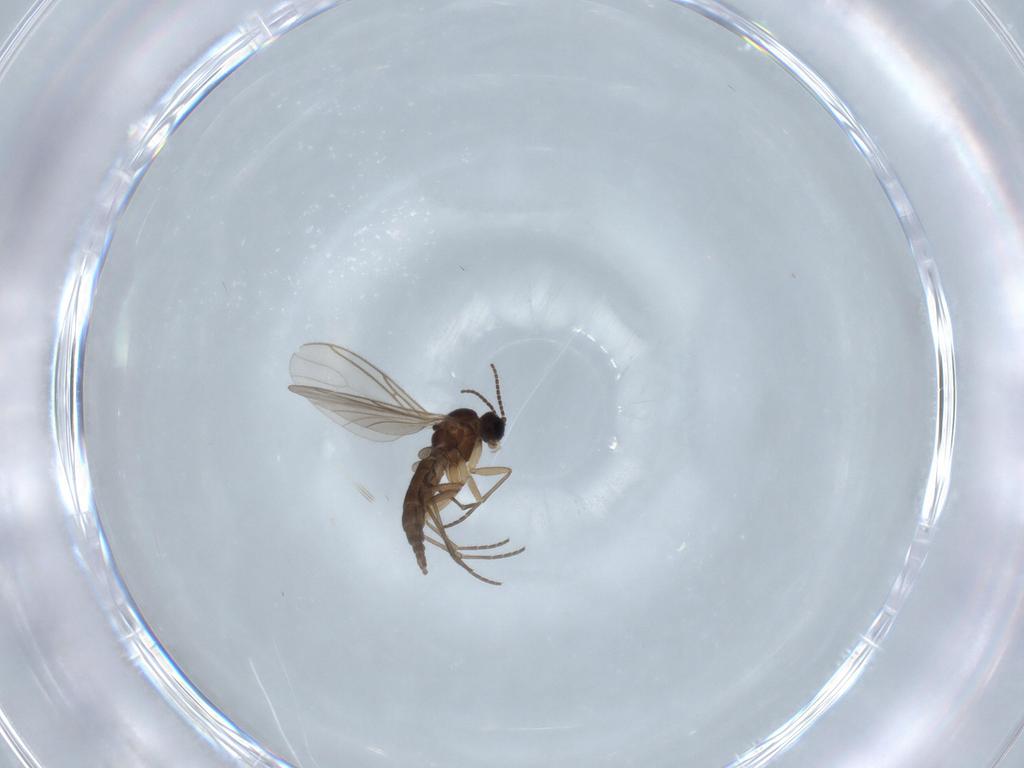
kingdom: Animalia
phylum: Arthropoda
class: Insecta
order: Diptera
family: Sciaridae
